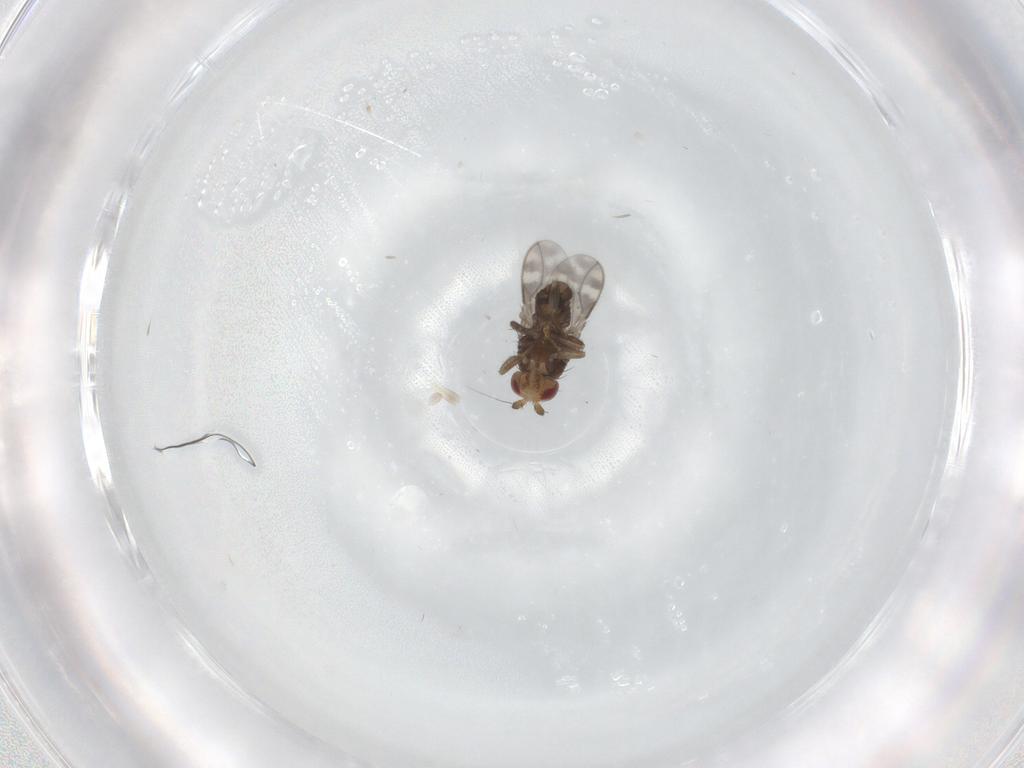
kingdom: Animalia
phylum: Arthropoda
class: Insecta
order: Diptera
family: Sphaeroceridae
